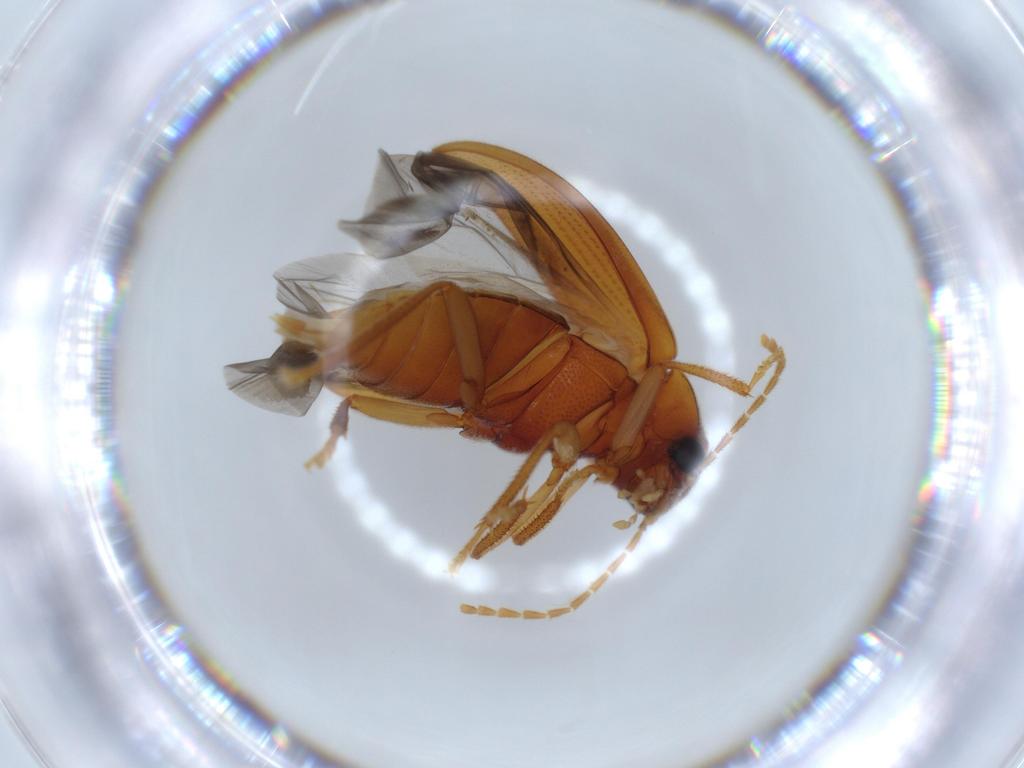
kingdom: Animalia
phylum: Arthropoda
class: Insecta
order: Coleoptera
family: Ptilodactylidae
